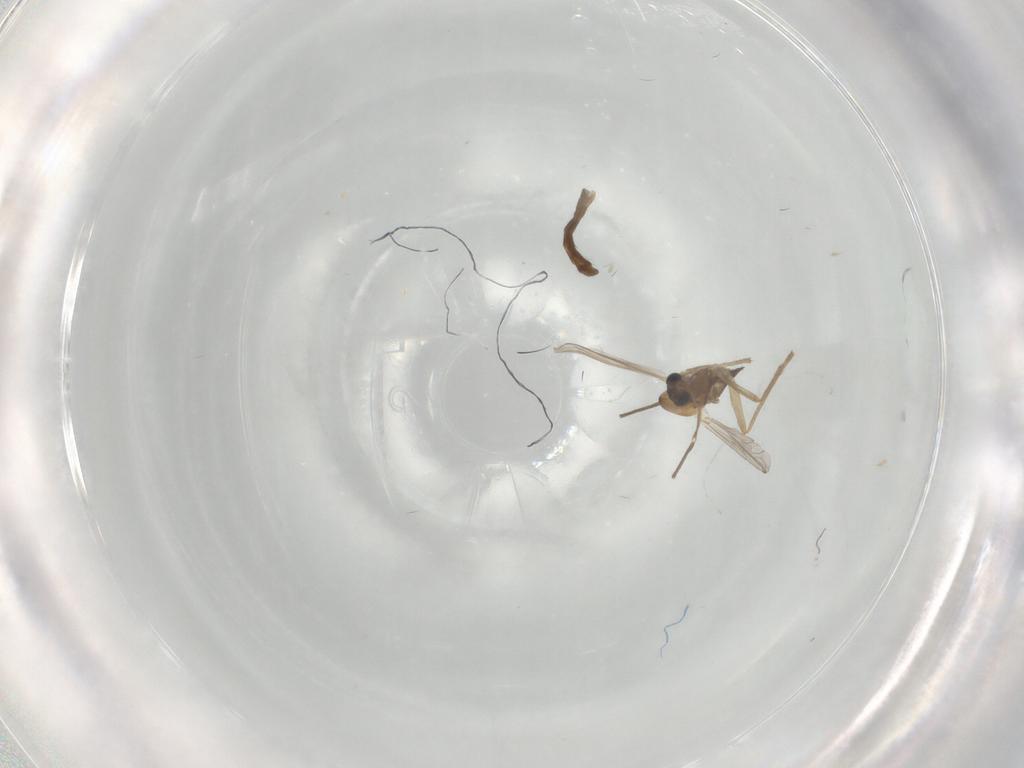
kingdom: Animalia
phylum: Arthropoda
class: Insecta
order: Diptera
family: Chironomidae
